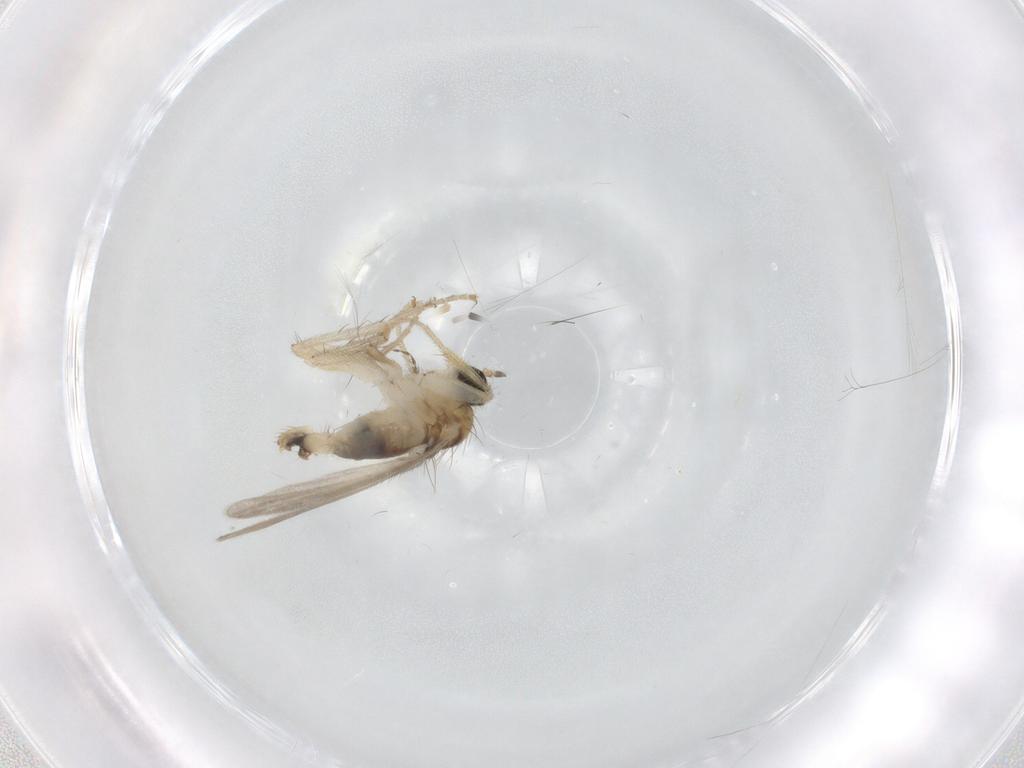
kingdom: Animalia
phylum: Arthropoda
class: Insecta
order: Diptera
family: Hybotidae
